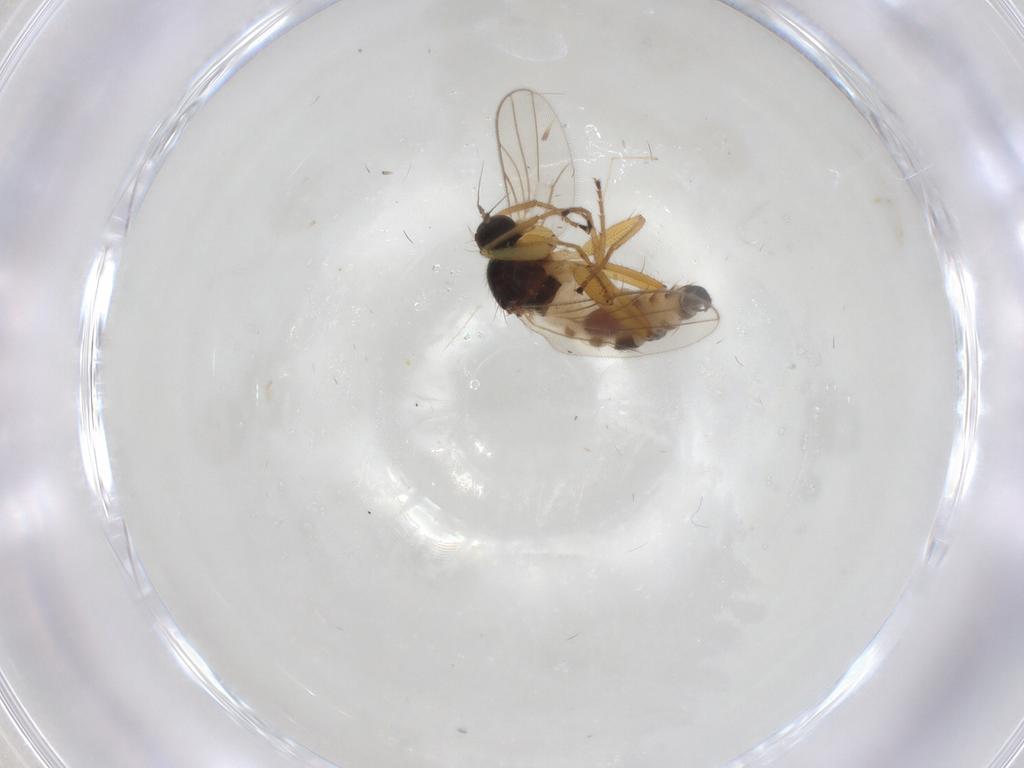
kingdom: Animalia
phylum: Arthropoda
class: Insecta
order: Diptera
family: Hybotidae
